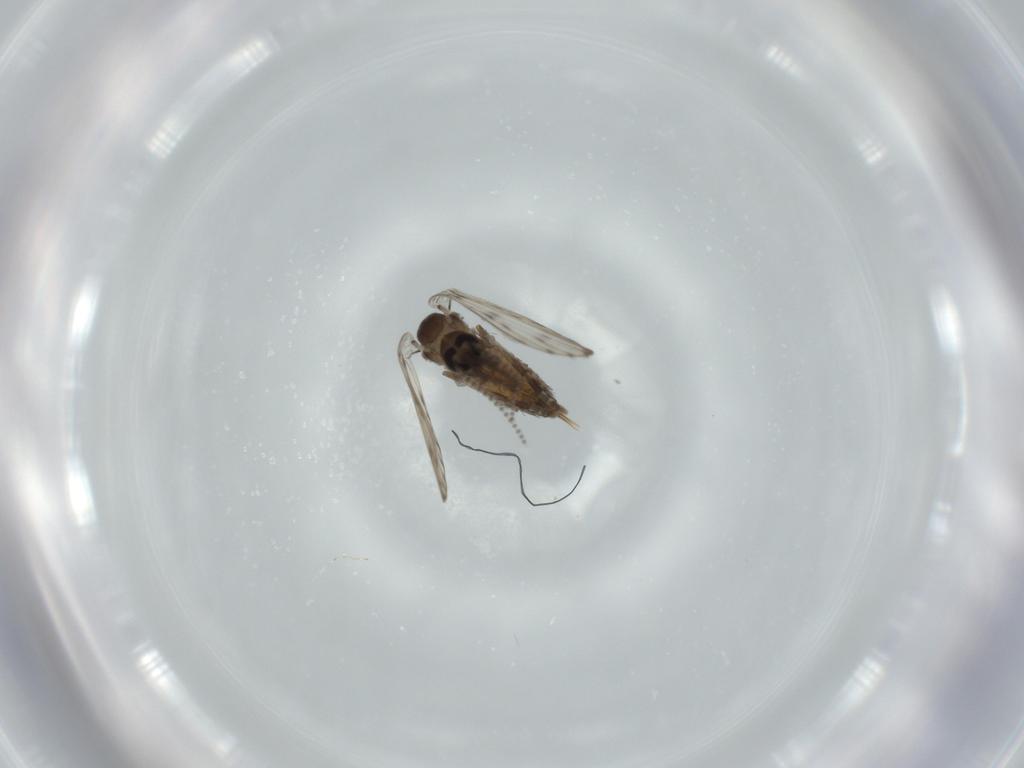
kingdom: Animalia
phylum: Arthropoda
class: Insecta
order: Diptera
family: Psychodidae
